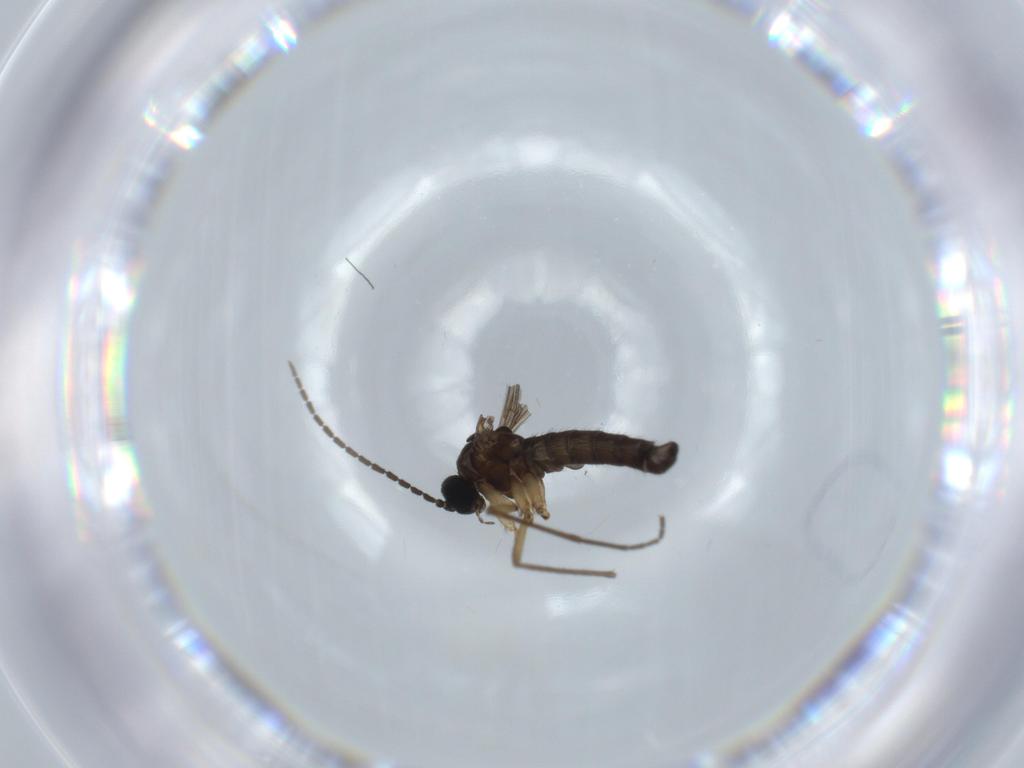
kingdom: Animalia
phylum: Arthropoda
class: Insecta
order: Diptera
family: Sciaridae
